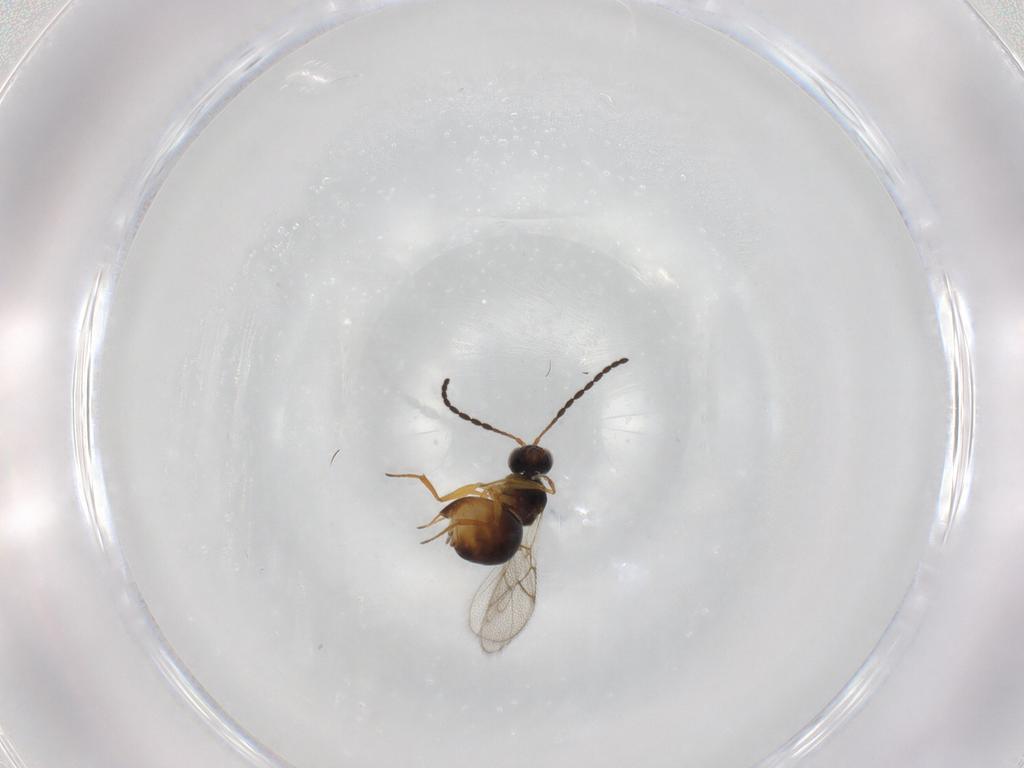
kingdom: Animalia
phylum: Arthropoda
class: Insecta
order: Hymenoptera
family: Figitidae
